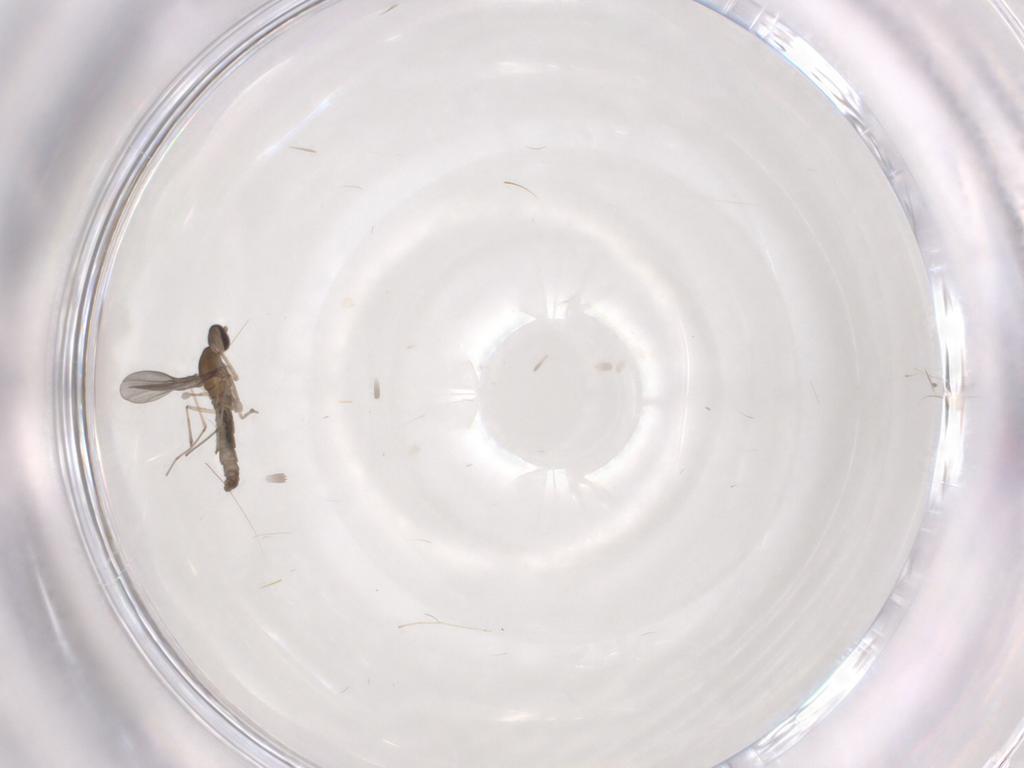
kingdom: Animalia
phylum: Arthropoda
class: Insecta
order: Diptera
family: Cecidomyiidae
